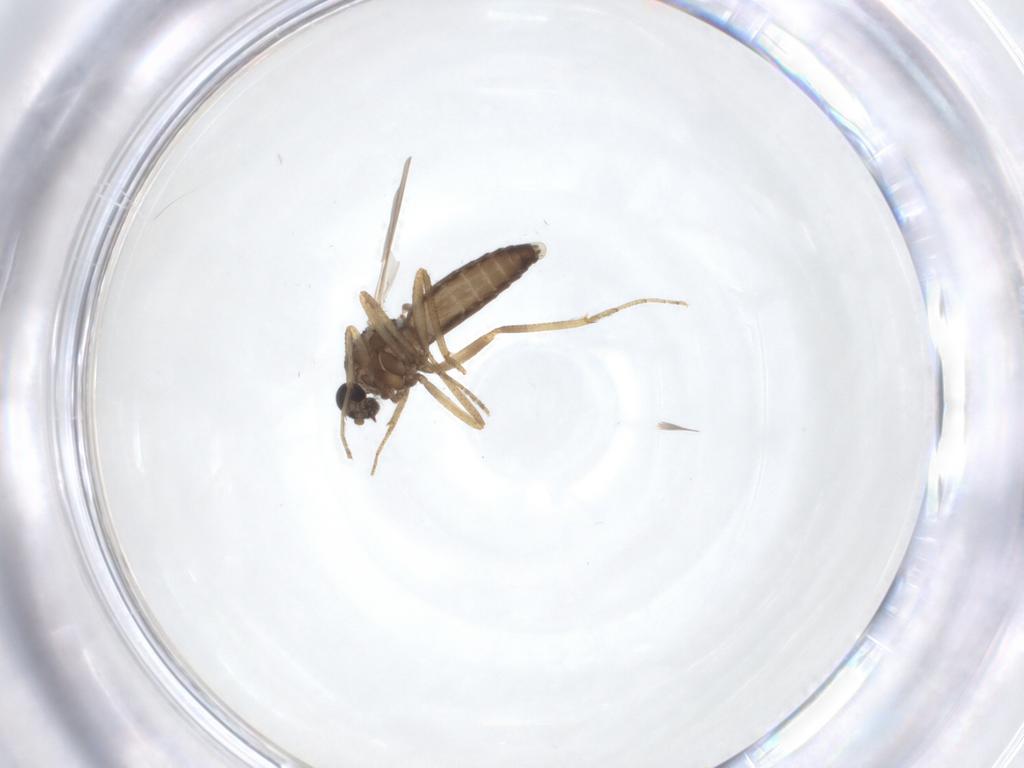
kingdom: Animalia
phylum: Arthropoda
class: Insecta
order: Diptera
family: Ceratopogonidae
